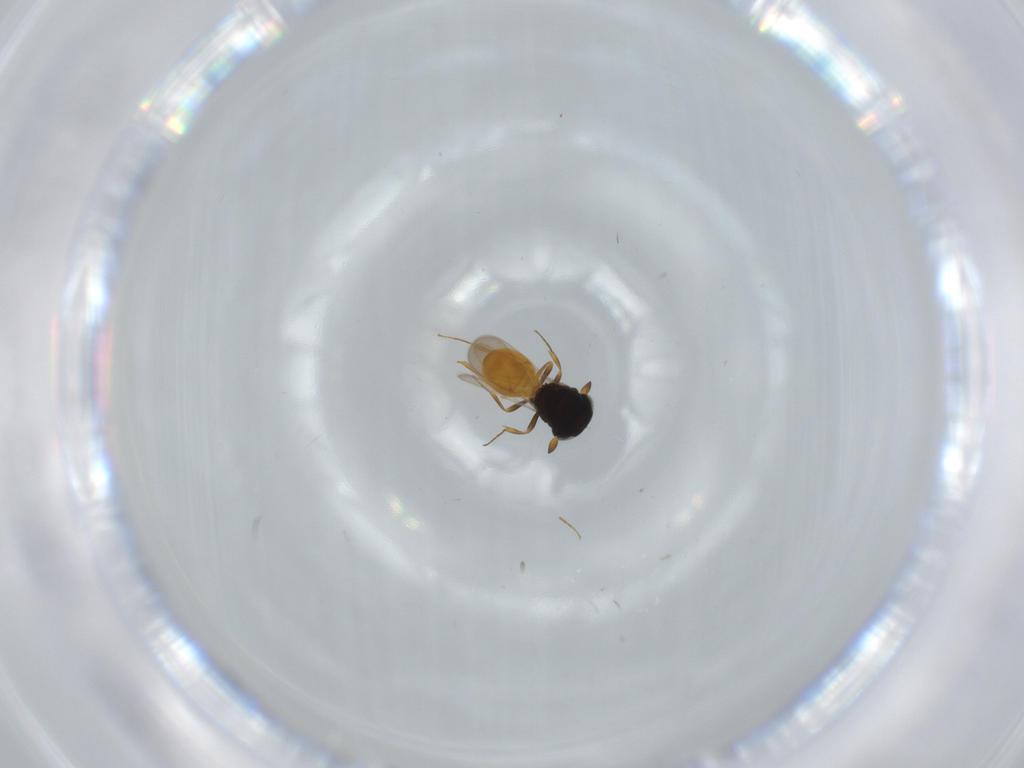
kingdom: Animalia
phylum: Arthropoda
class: Insecta
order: Hymenoptera
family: Scelionidae
